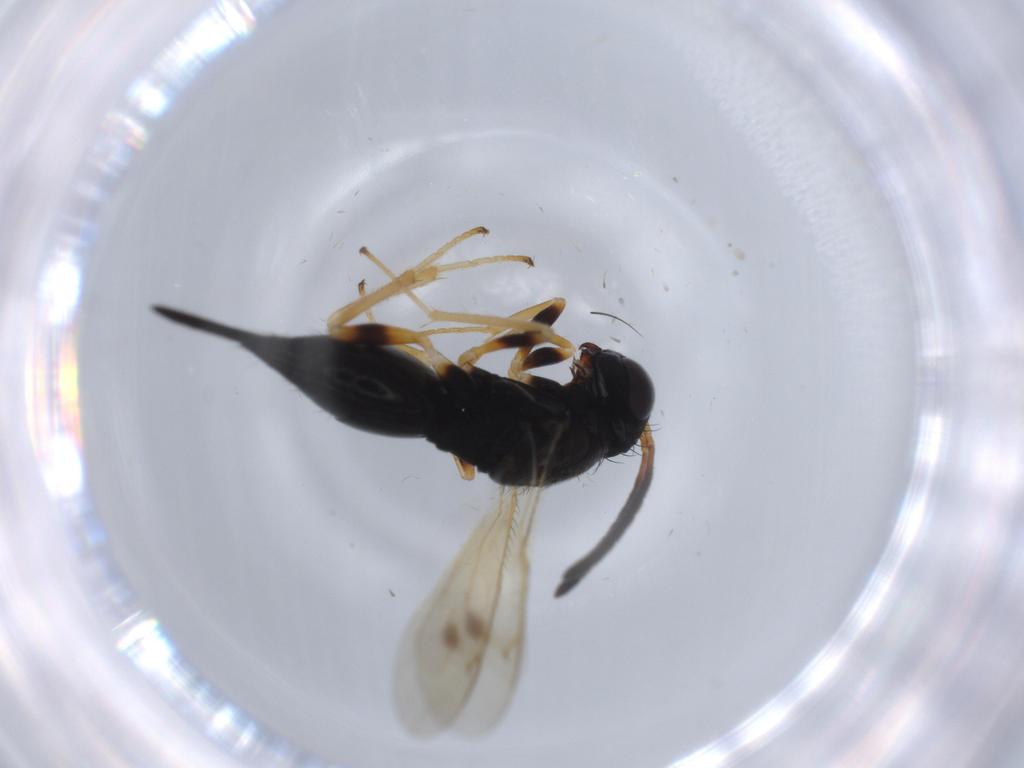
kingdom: Animalia
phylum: Arthropoda
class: Insecta
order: Hymenoptera
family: Pteromalidae
